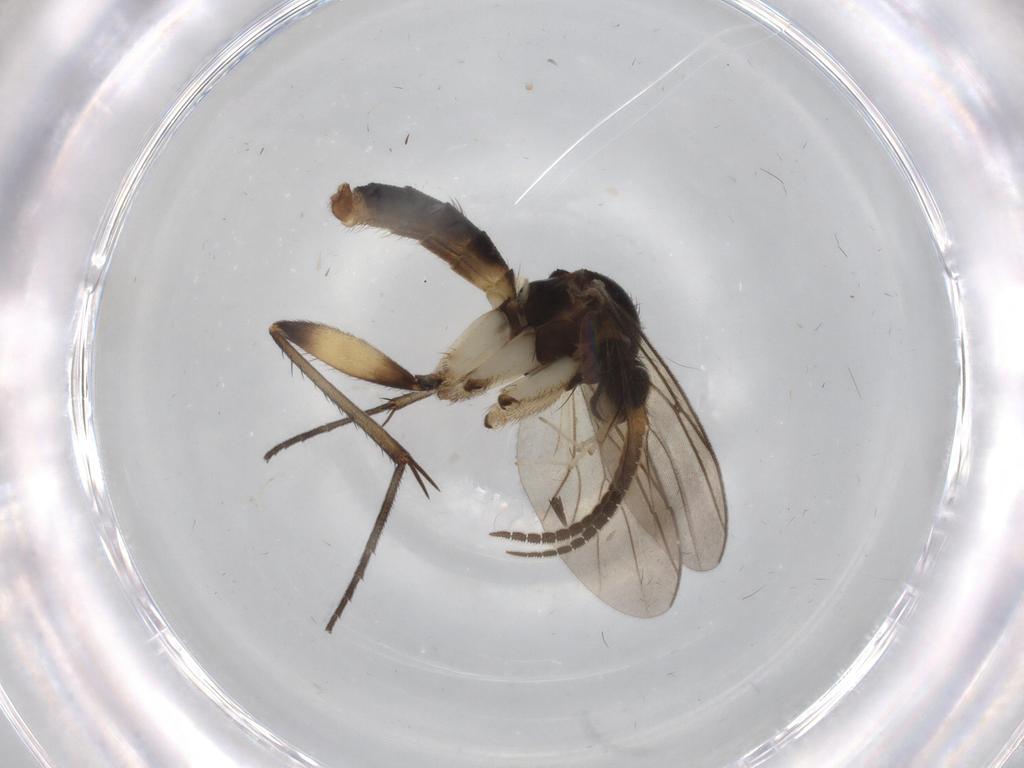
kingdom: Animalia
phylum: Arthropoda
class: Insecta
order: Diptera
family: Mycetophilidae
